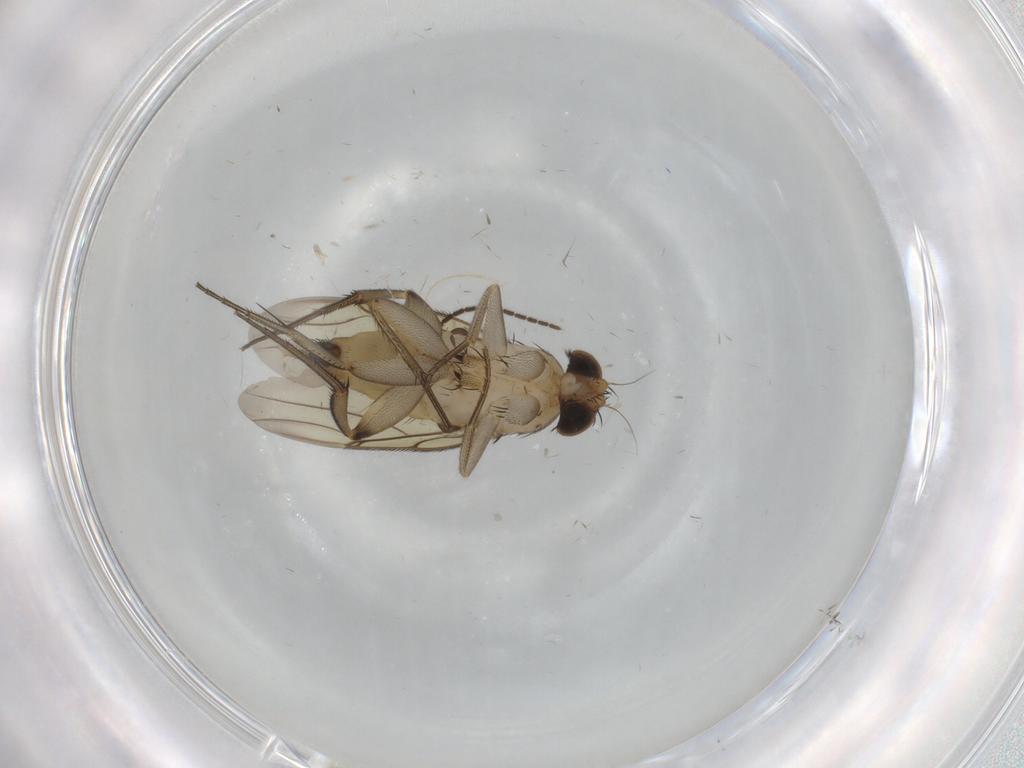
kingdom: Animalia
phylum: Arthropoda
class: Insecta
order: Diptera
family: Phoridae
